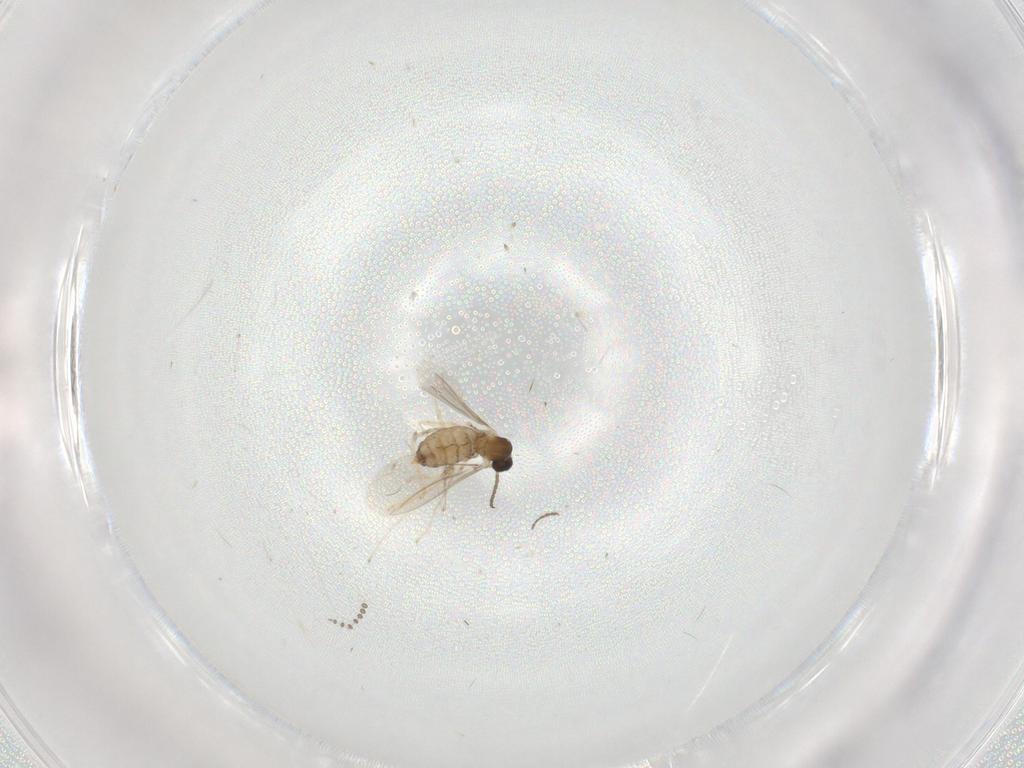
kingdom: Animalia
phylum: Arthropoda
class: Insecta
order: Diptera
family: Cecidomyiidae
